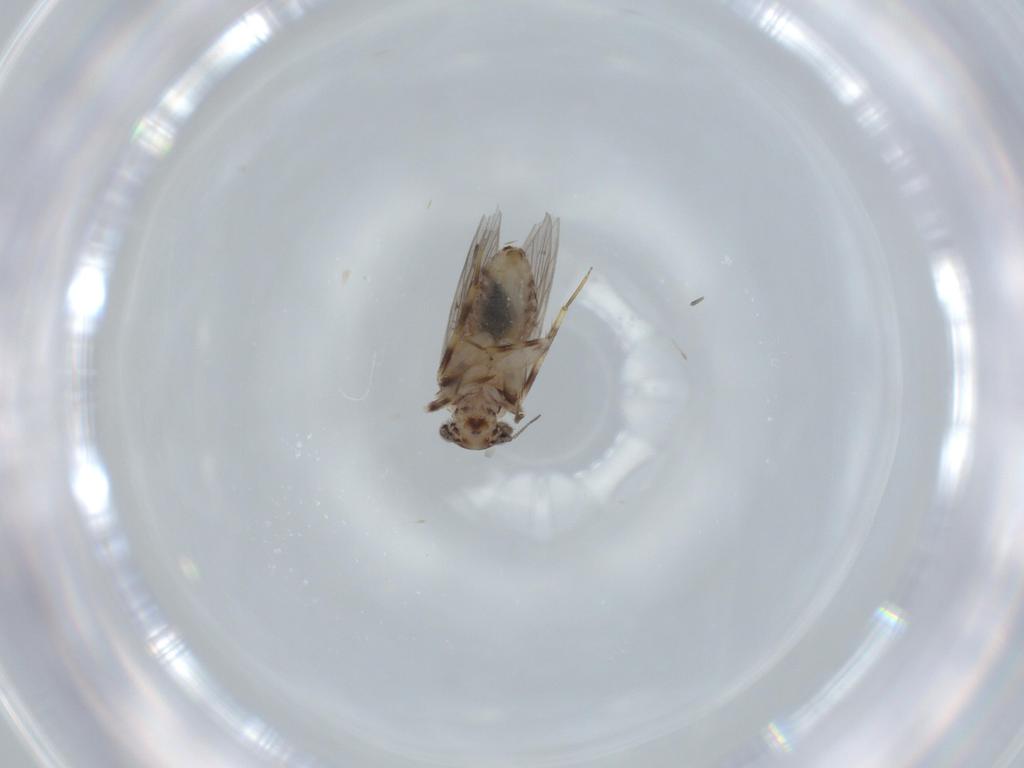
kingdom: Animalia
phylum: Arthropoda
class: Insecta
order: Psocodea
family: Lepidopsocidae
